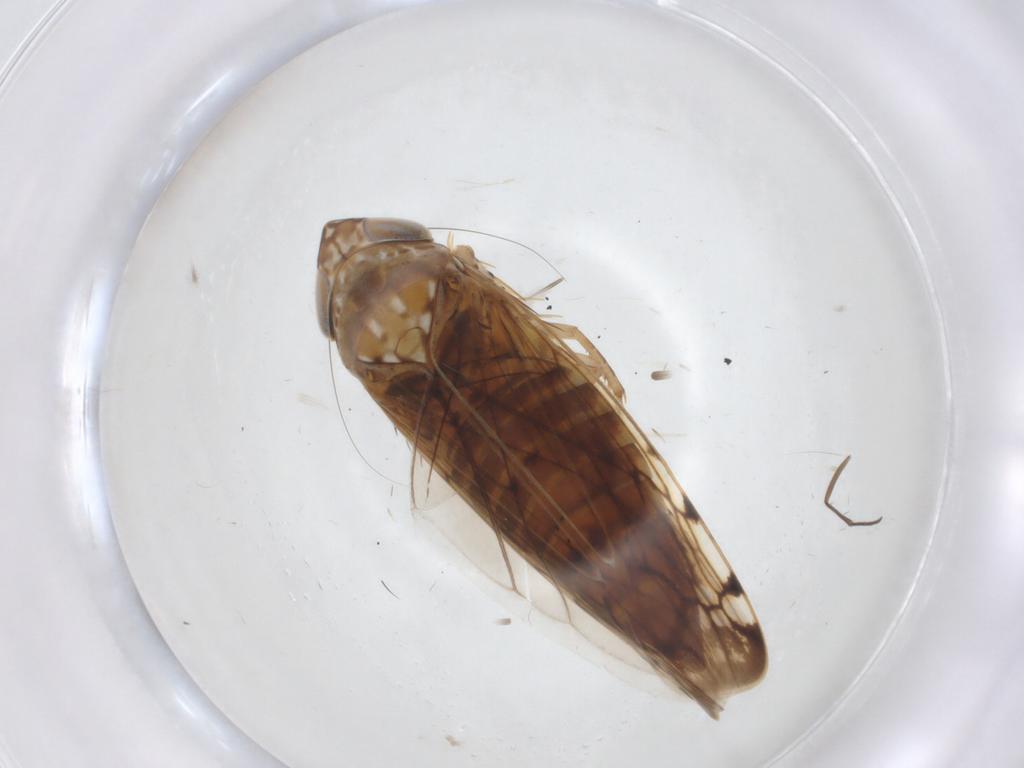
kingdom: Animalia
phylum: Arthropoda
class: Insecta
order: Hemiptera
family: Cicadellidae
